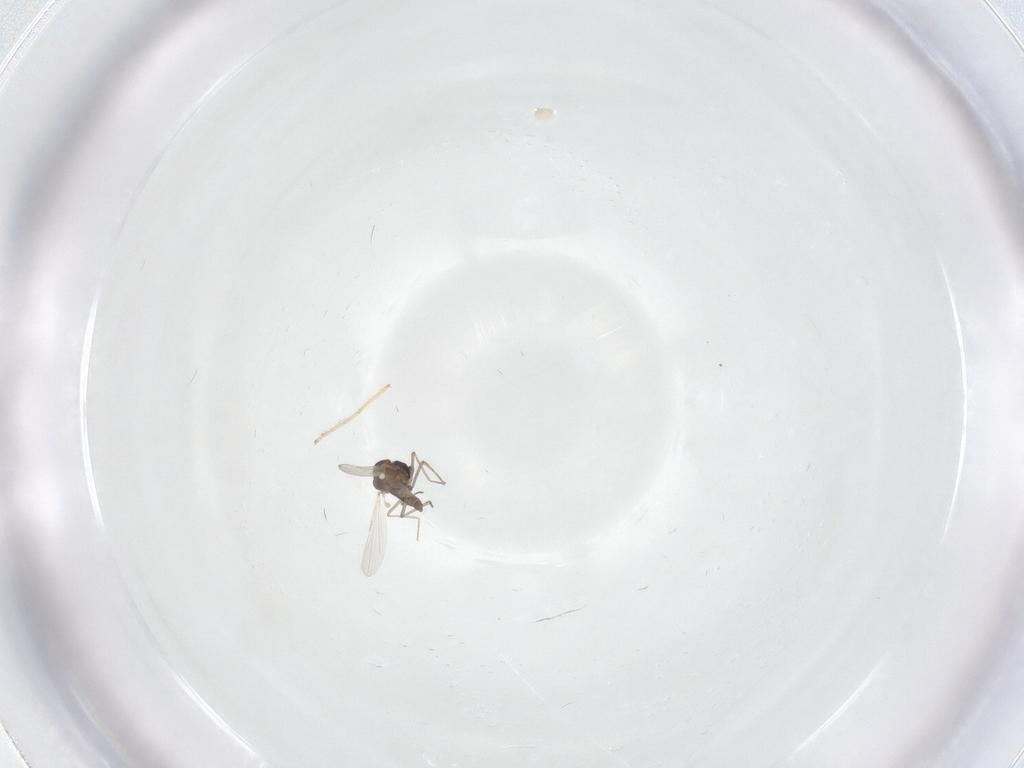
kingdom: Animalia
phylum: Arthropoda
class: Insecta
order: Diptera
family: Chironomidae
